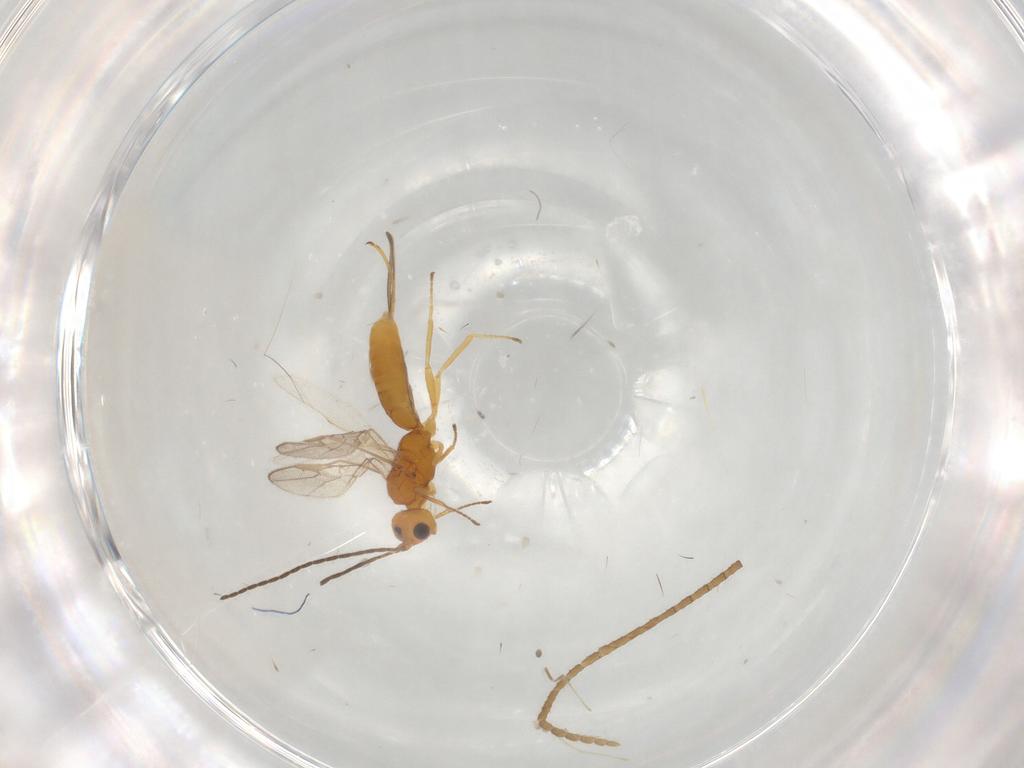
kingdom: Animalia
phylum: Arthropoda
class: Insecta
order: Hymenoptera
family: Braconidae
